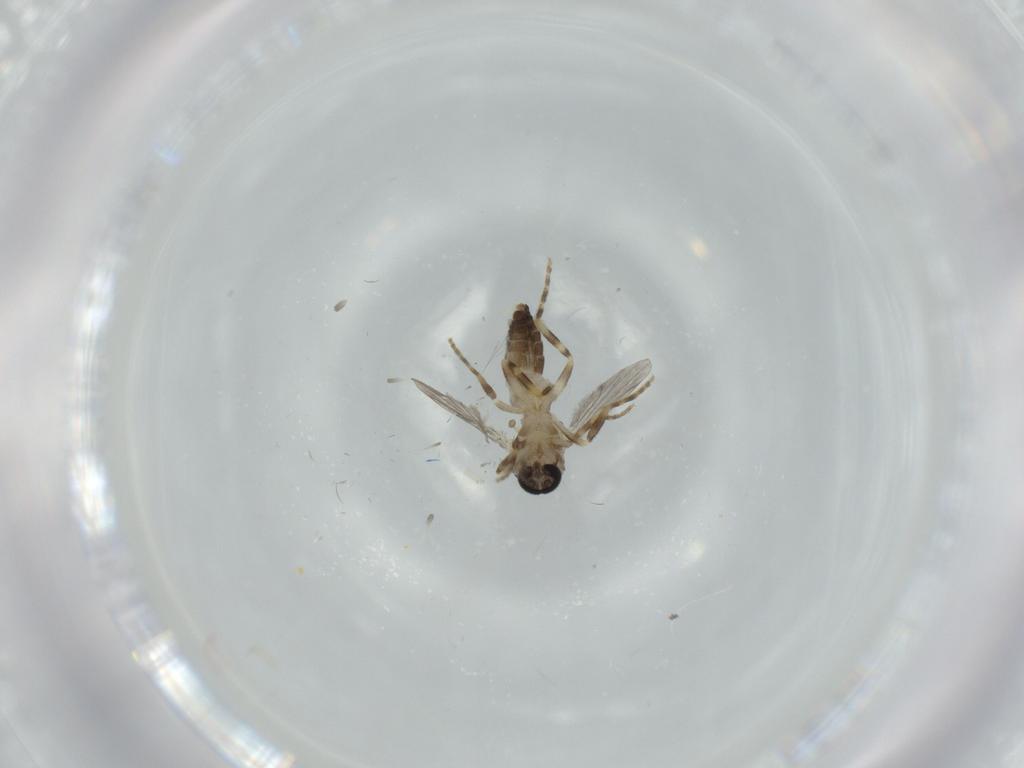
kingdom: Animalia
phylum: Arthropoda
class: Insecta
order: Diptera
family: Ceratopogonidae
